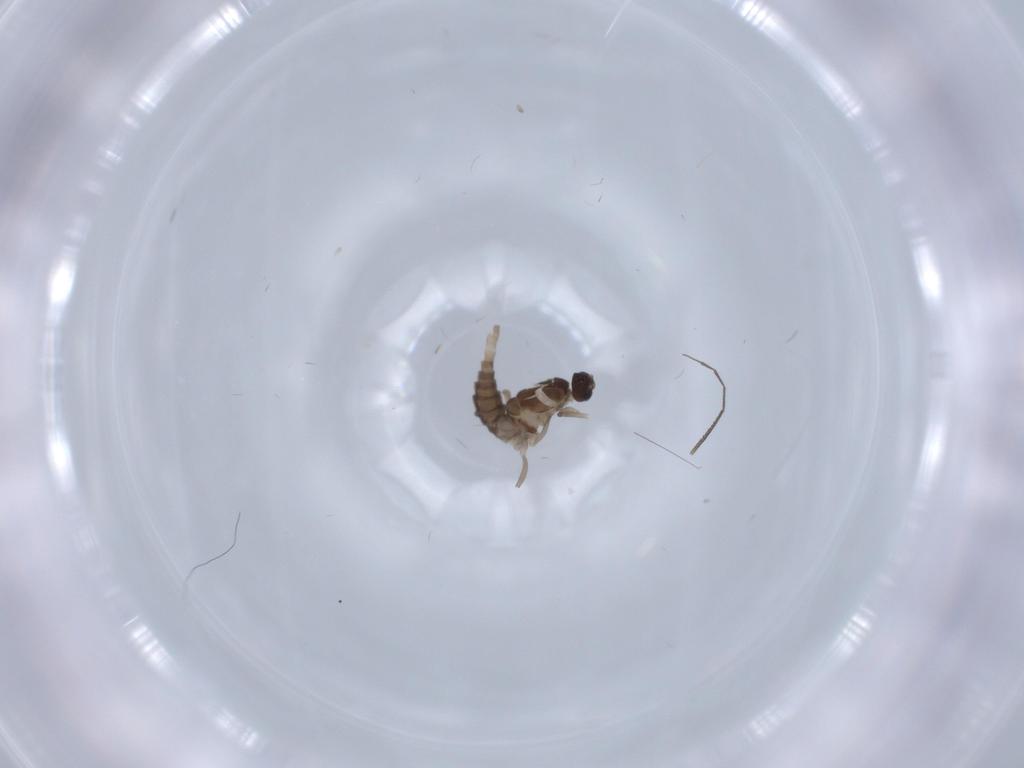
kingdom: Animalia
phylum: Arthropoda
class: Insecta
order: Diptera
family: Cecidomyiidae
